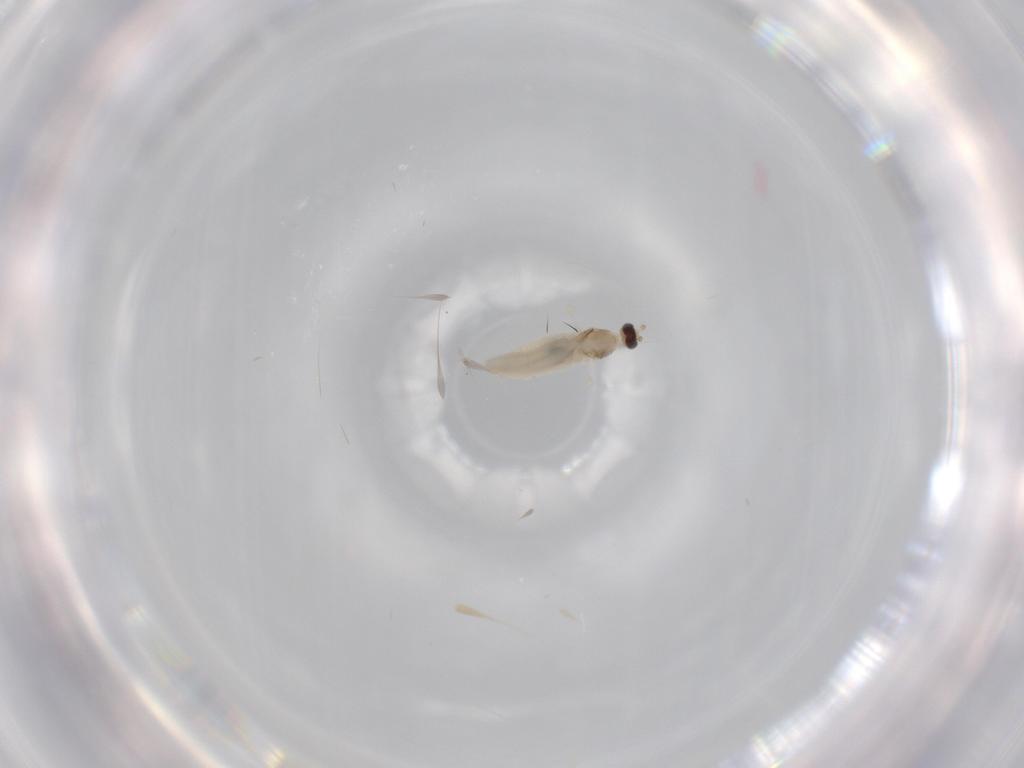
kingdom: Animalia
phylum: Arthropoda
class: Insecta
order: Diptera
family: Cecidomyiidae
